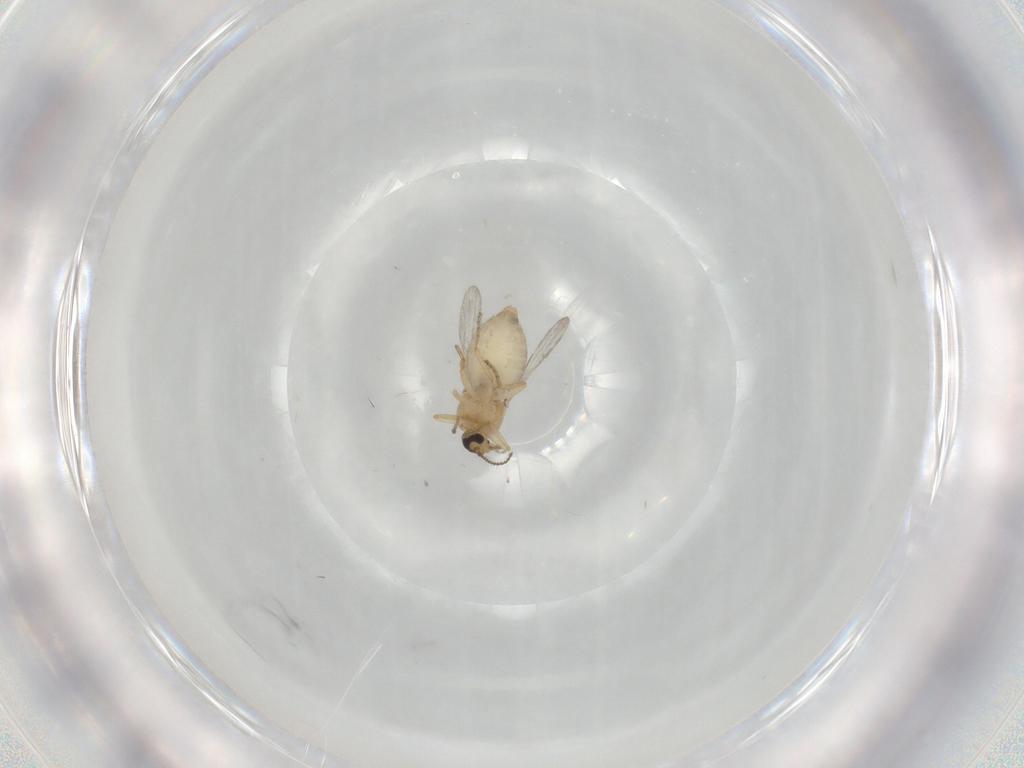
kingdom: Animalia
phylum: Arthropoda
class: Insecta
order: Diptera
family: Ceratopogonidae
